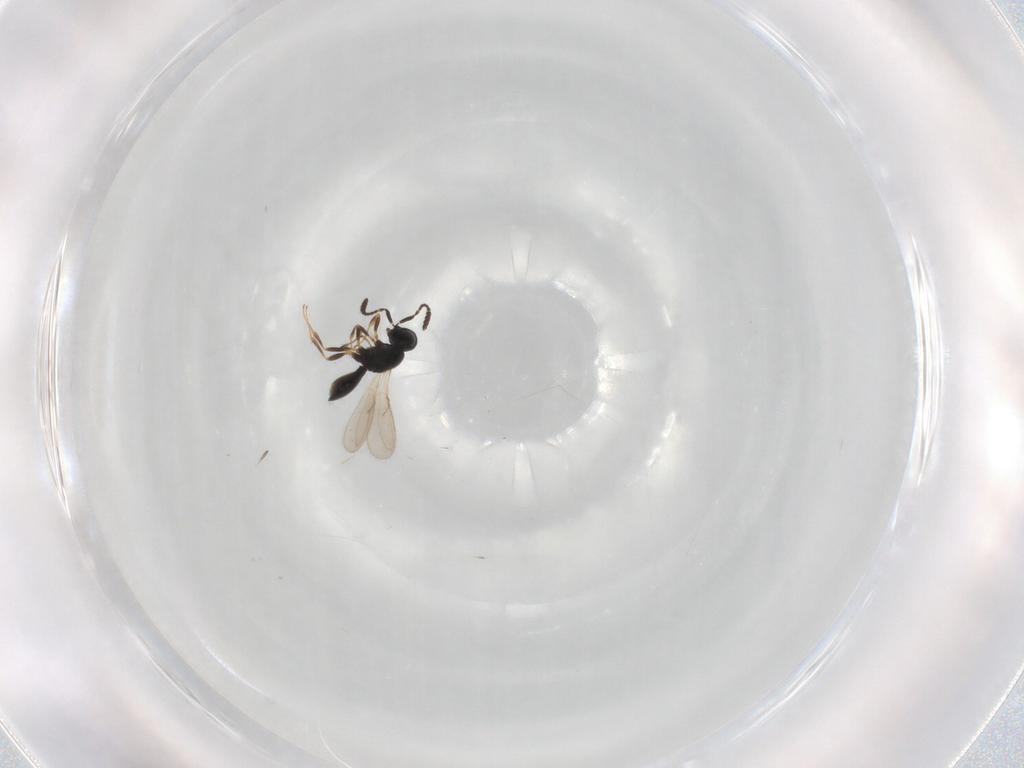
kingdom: Animalia
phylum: Arthropoda
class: Insecta
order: Hymenoptera
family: Scelionidae
